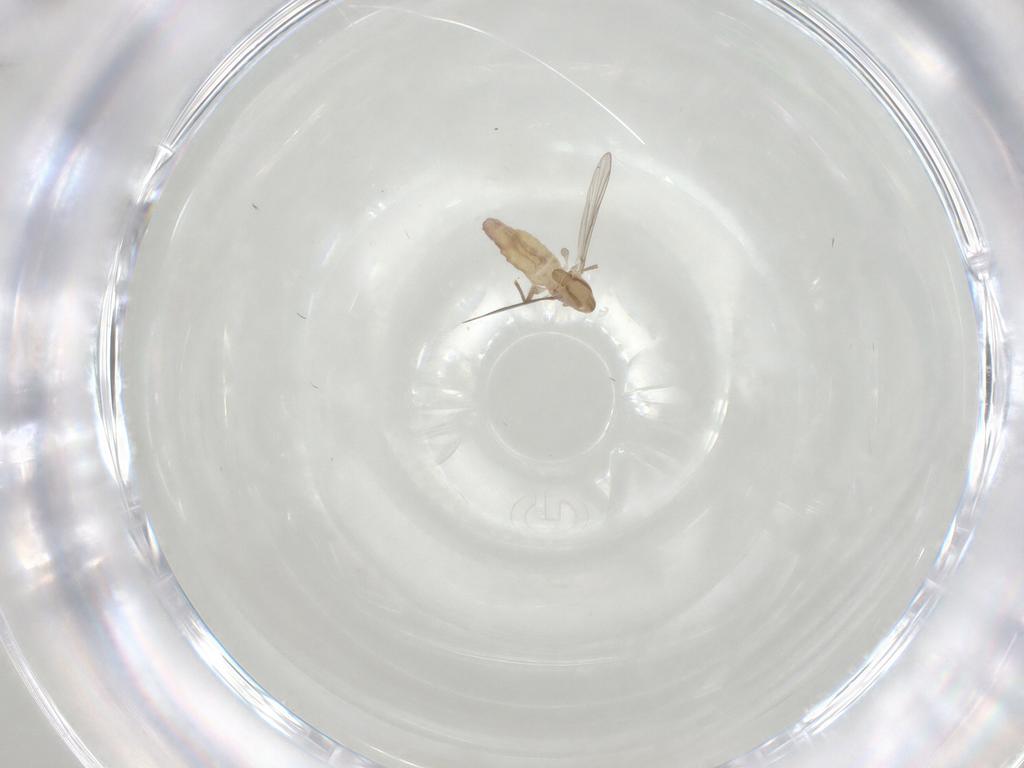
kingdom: Animalia
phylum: Arthropoda
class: Insecta
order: Diptera
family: Chironomidae
